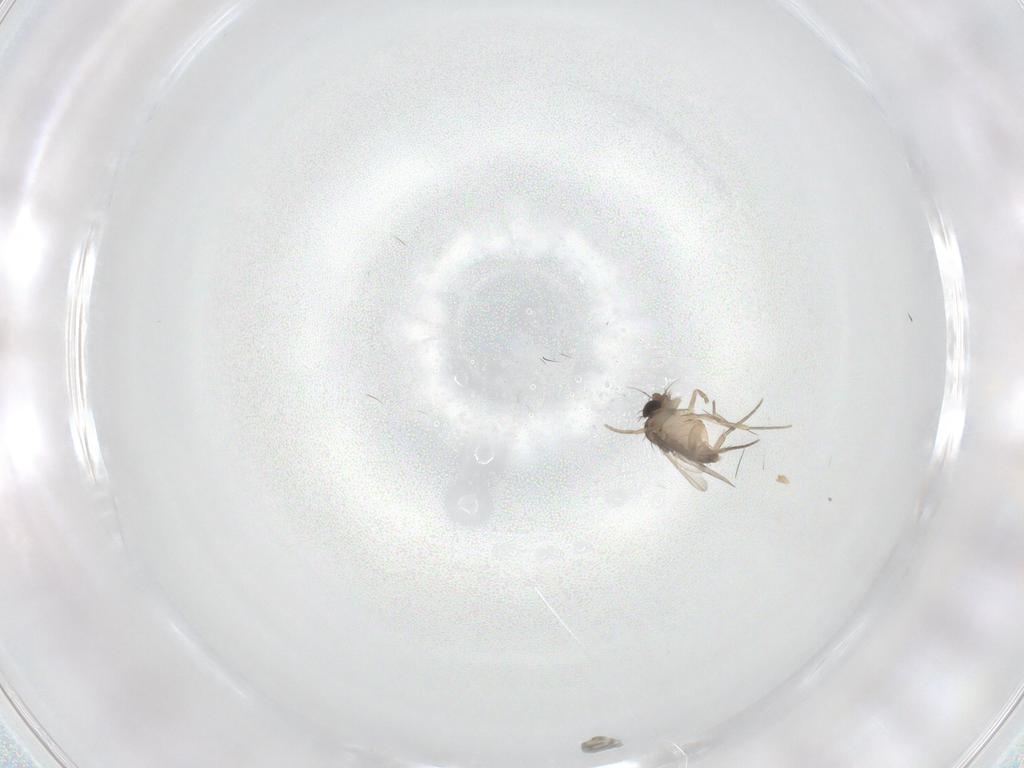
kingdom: Animalia
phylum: Arthropoda
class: Insecta
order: Diptera
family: Phoridae
